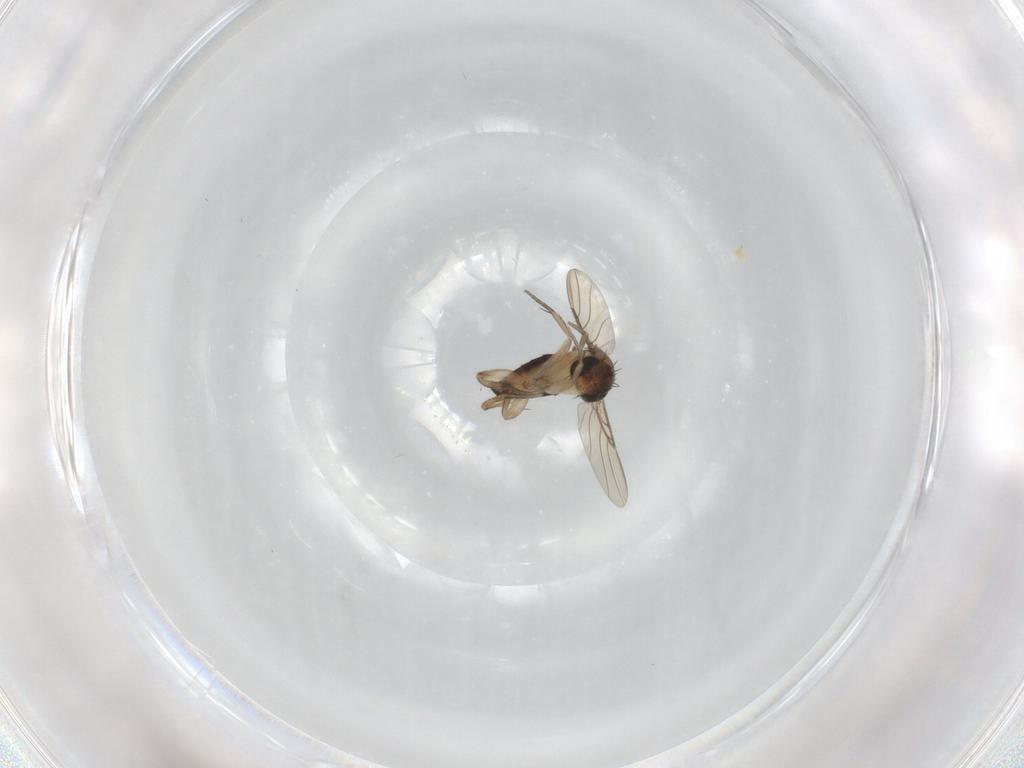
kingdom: Animalia
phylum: Arthropoda
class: Insecta
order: Diptera
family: Phoridae
